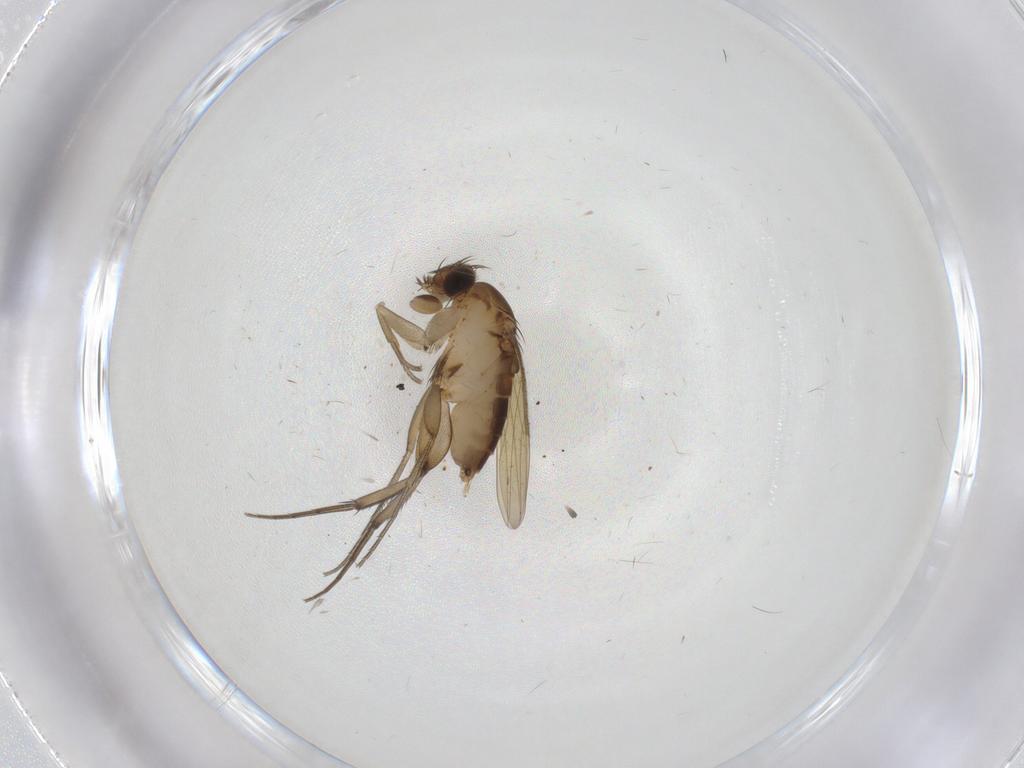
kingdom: Animalia
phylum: Arthropoda
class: Insecta
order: Diptera
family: Phoridae
